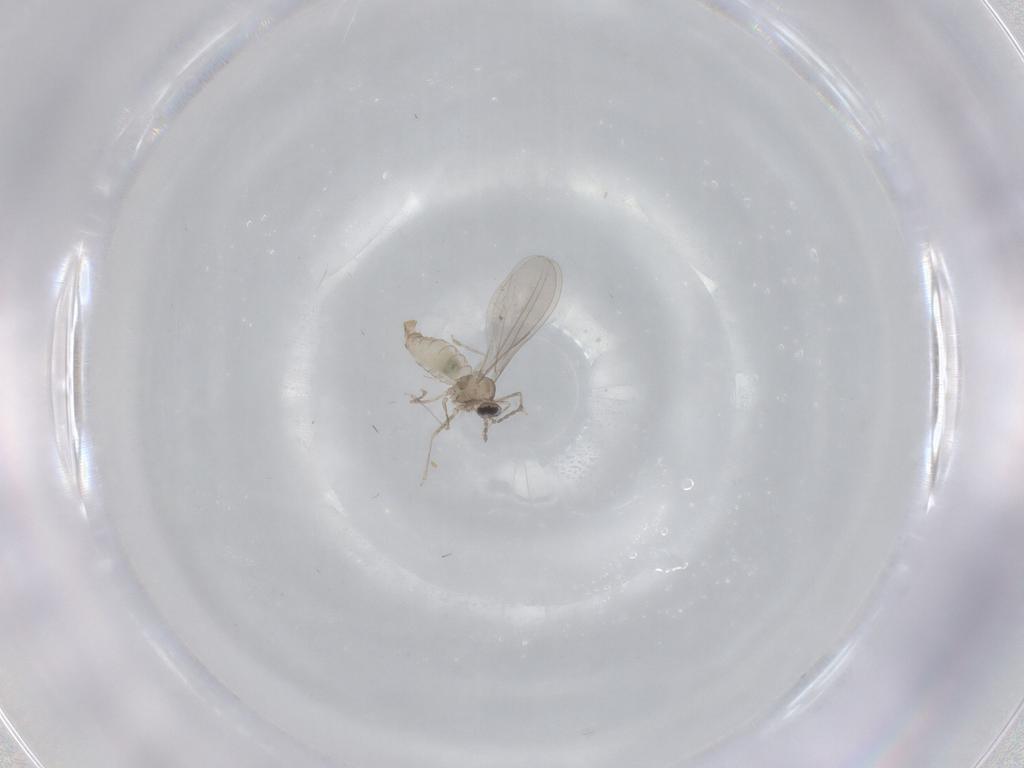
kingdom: Animalia
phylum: Arthropoda
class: Insecta
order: Diptera
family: Cecidomyiidae
